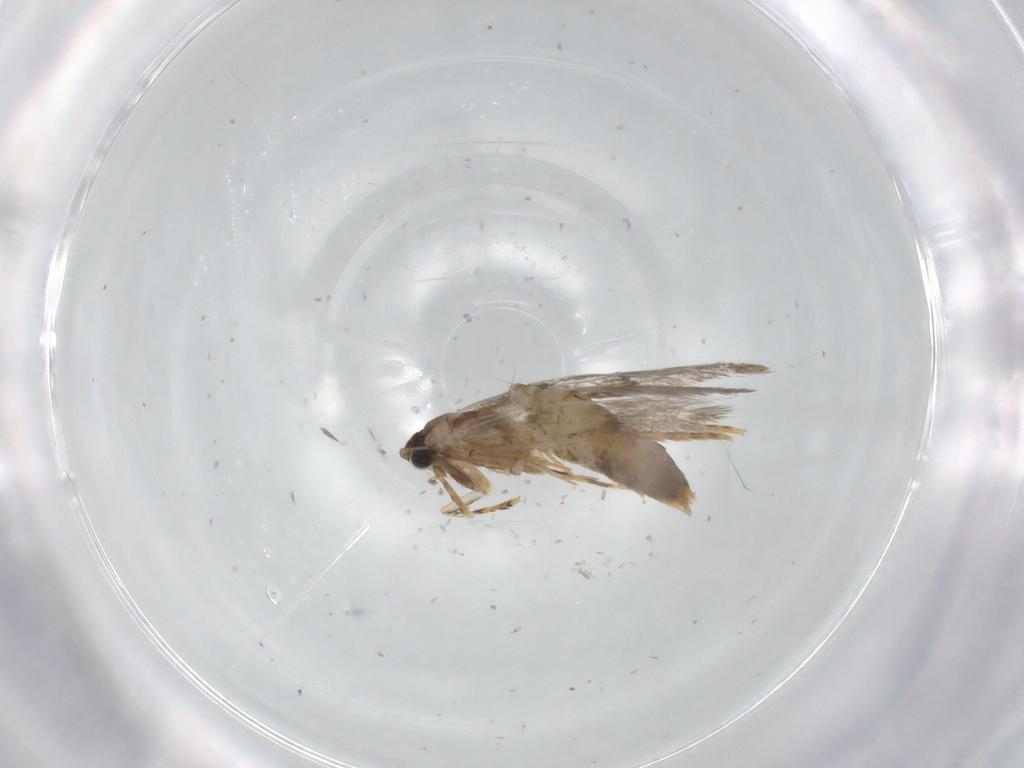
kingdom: Animalia
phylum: Arthropoda
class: Insecta
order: Lepidoptera
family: Tineidae
